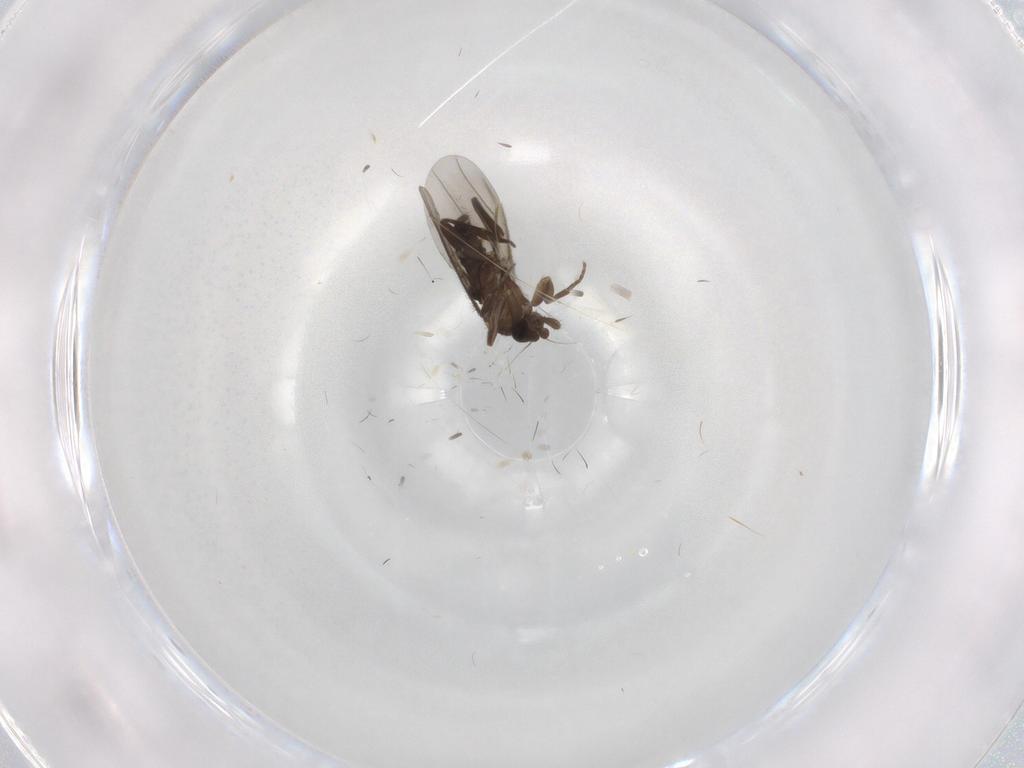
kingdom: Animalia
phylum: Arthropoda
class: Insecta
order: Diptera
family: Chironomidae
